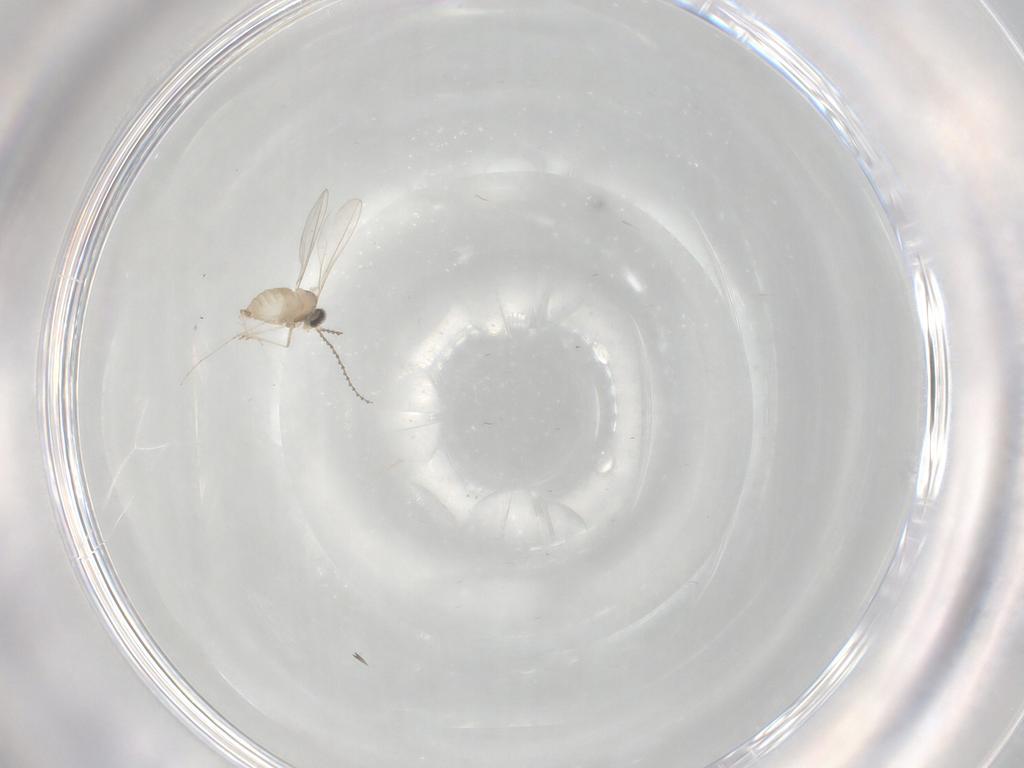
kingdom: Animalia
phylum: Arthropoda
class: Insecta
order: Diptera
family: Cecidomyiidae
